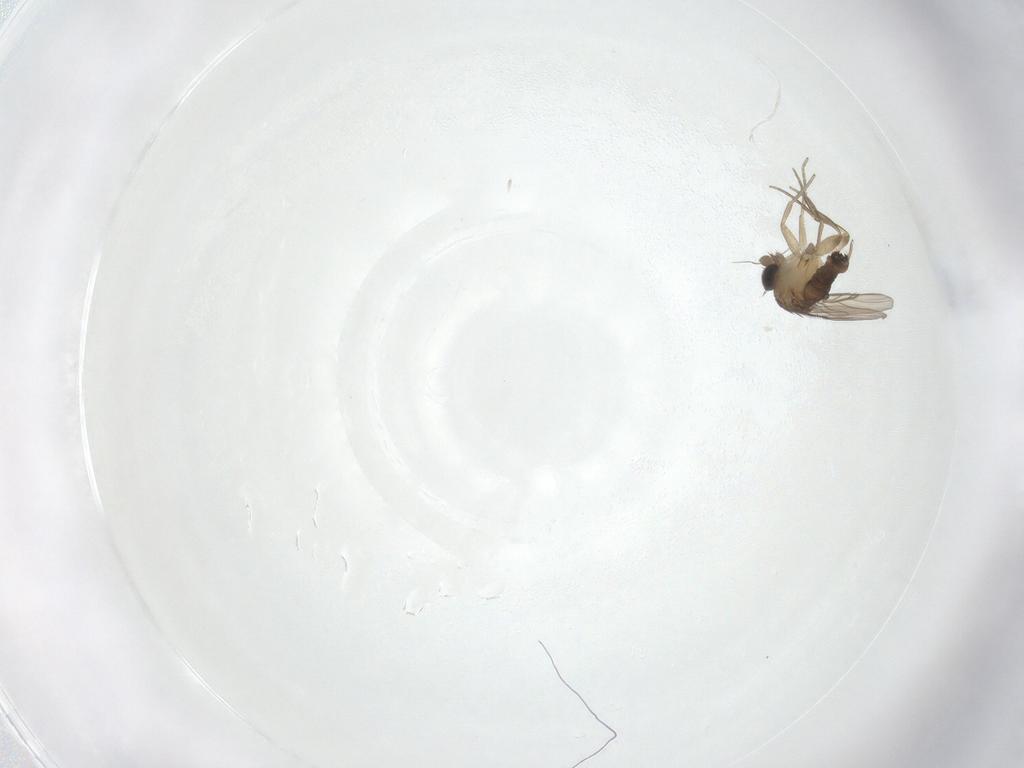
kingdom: Animalia
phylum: Arthropoda
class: Insecta
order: Diptera
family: Phoridae
